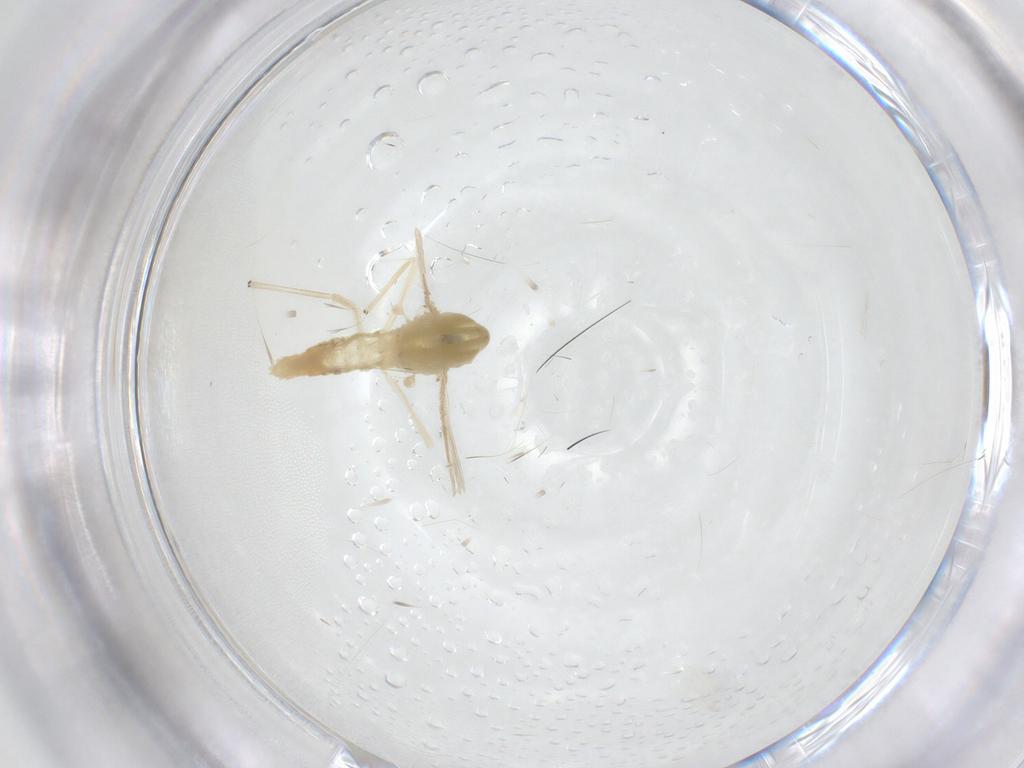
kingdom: Animalia
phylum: Arthropoda
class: Insecta
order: Diptera
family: Chironomidae
